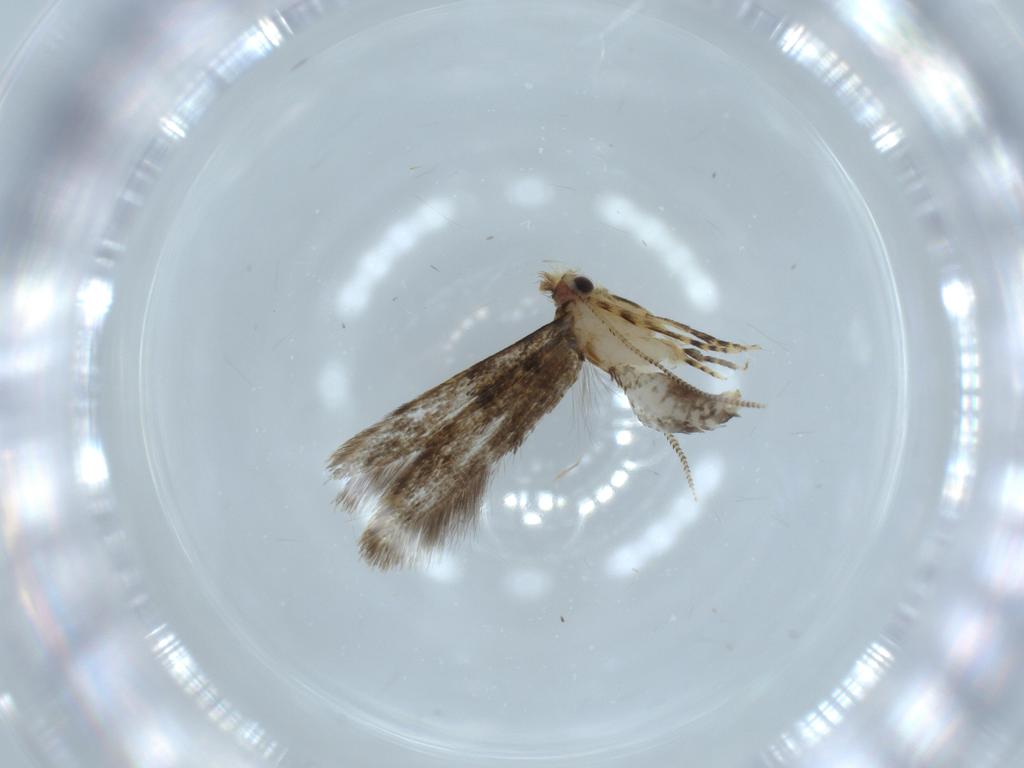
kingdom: Animalia
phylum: Arthropoda
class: Insecta
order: Lepidoptera
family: Tineidae
